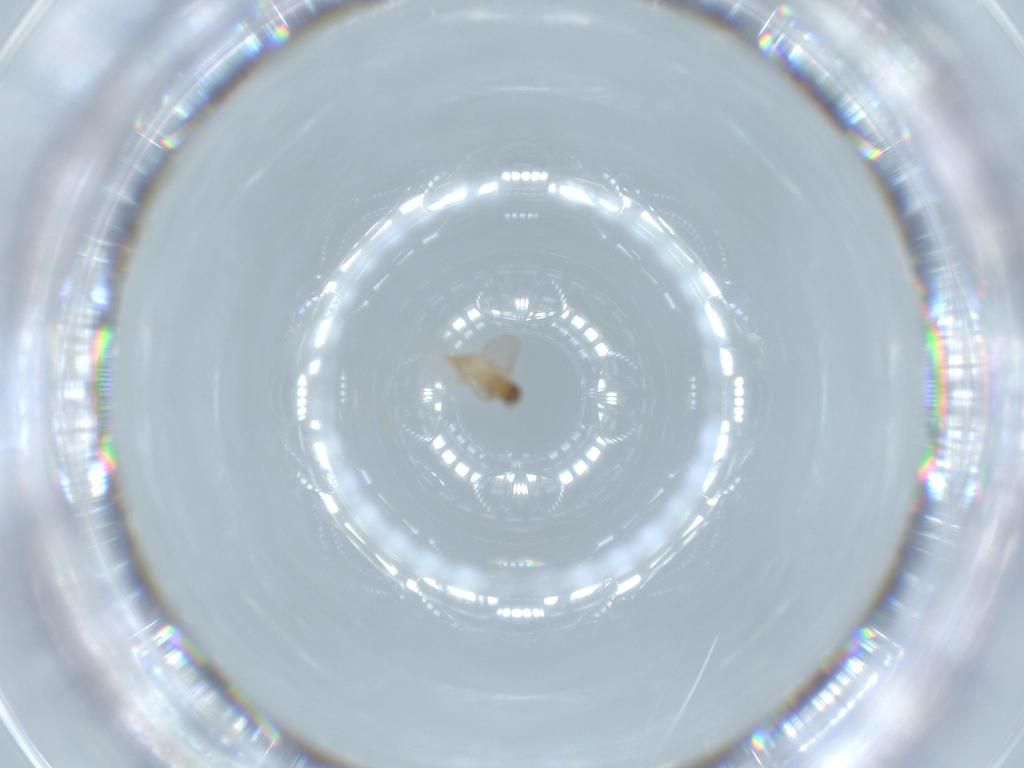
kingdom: Animalia
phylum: Arthropoda
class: Insecta
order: Diptera
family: Cecidomyiidae
